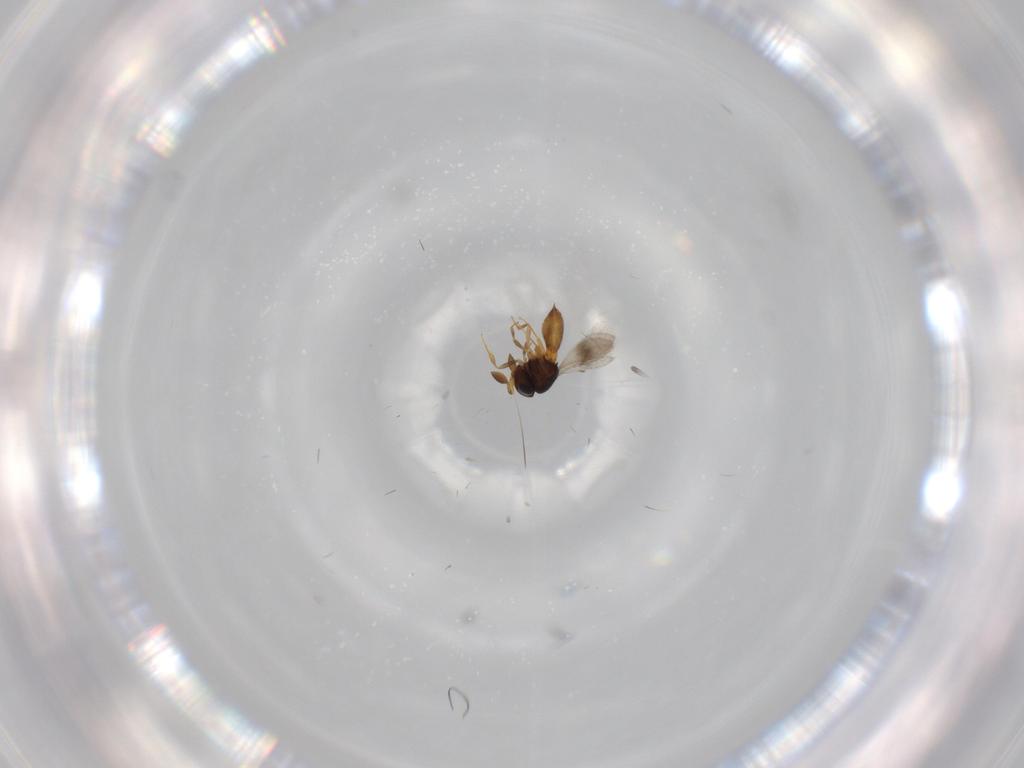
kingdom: Animalia
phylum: Arthropoda
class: Insecta
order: Hymenoptera
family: Scelionidae
